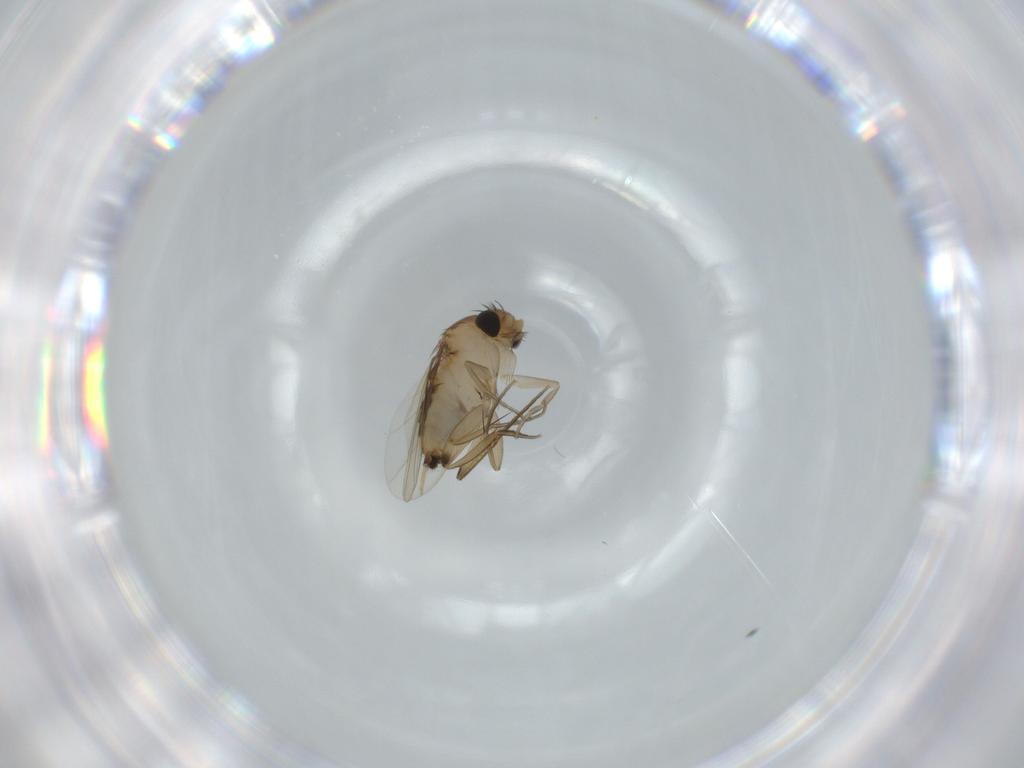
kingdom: Animalia
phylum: Arthropoda
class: Insecta
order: Diptera
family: Phoridae
